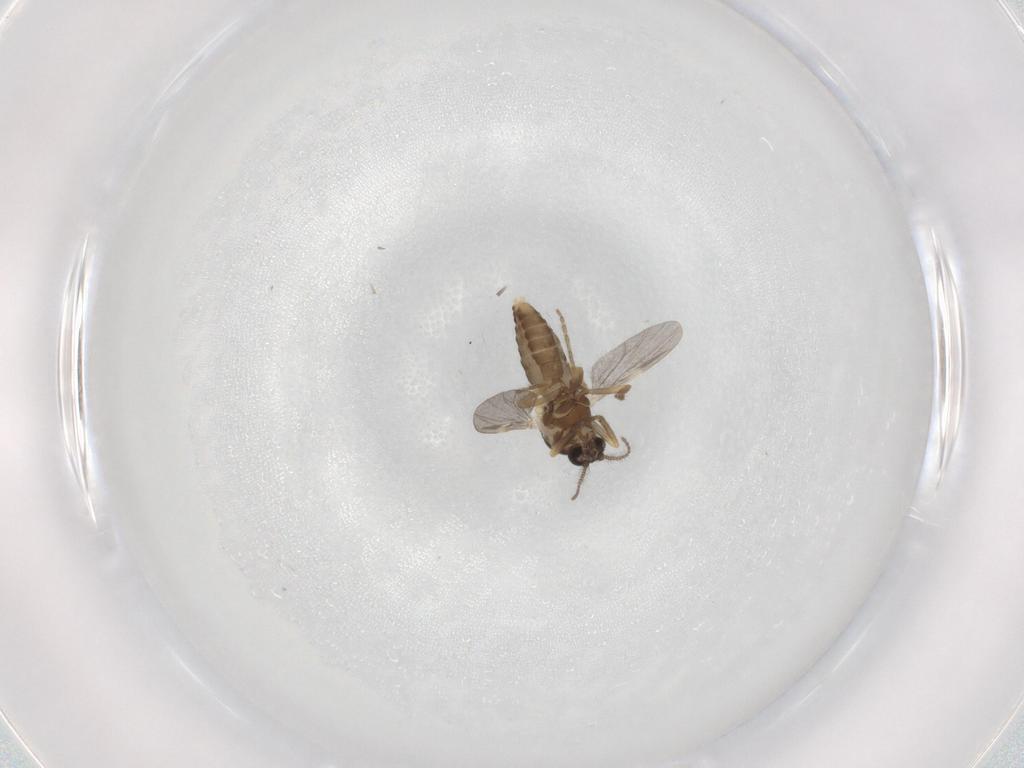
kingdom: Animalia
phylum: Arthropoda
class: Insecta
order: Diptera
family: Ceratopogonidae
